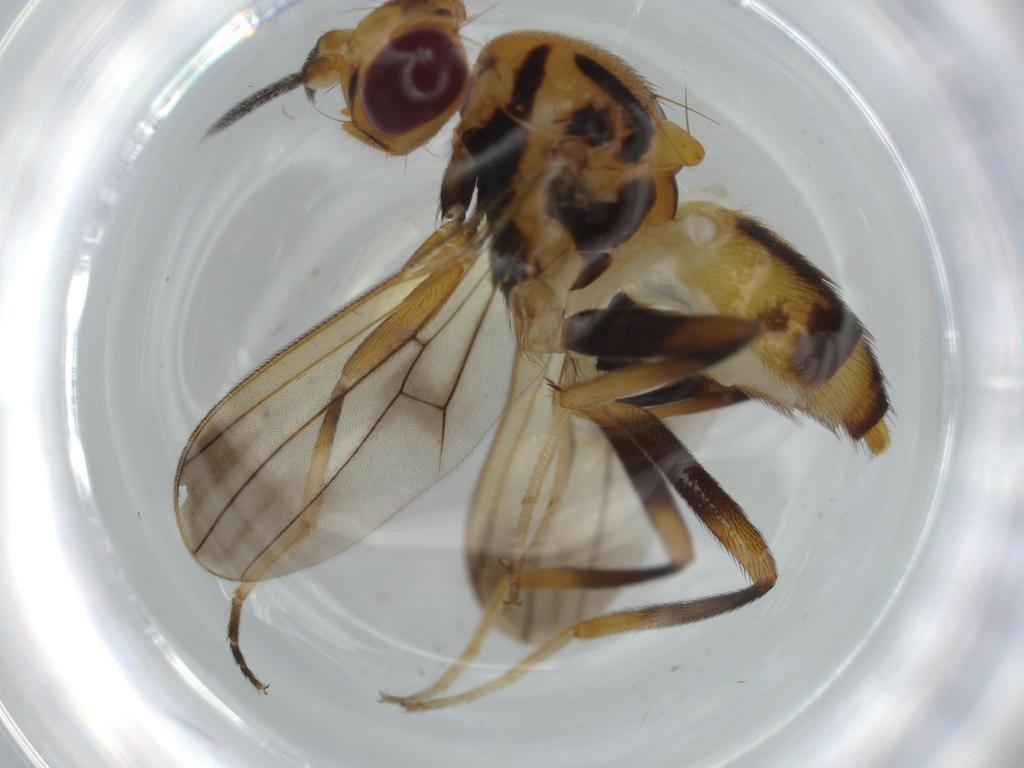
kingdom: Animalia
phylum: Arthropoda
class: Insecta
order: Diptera
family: Clusiidae
